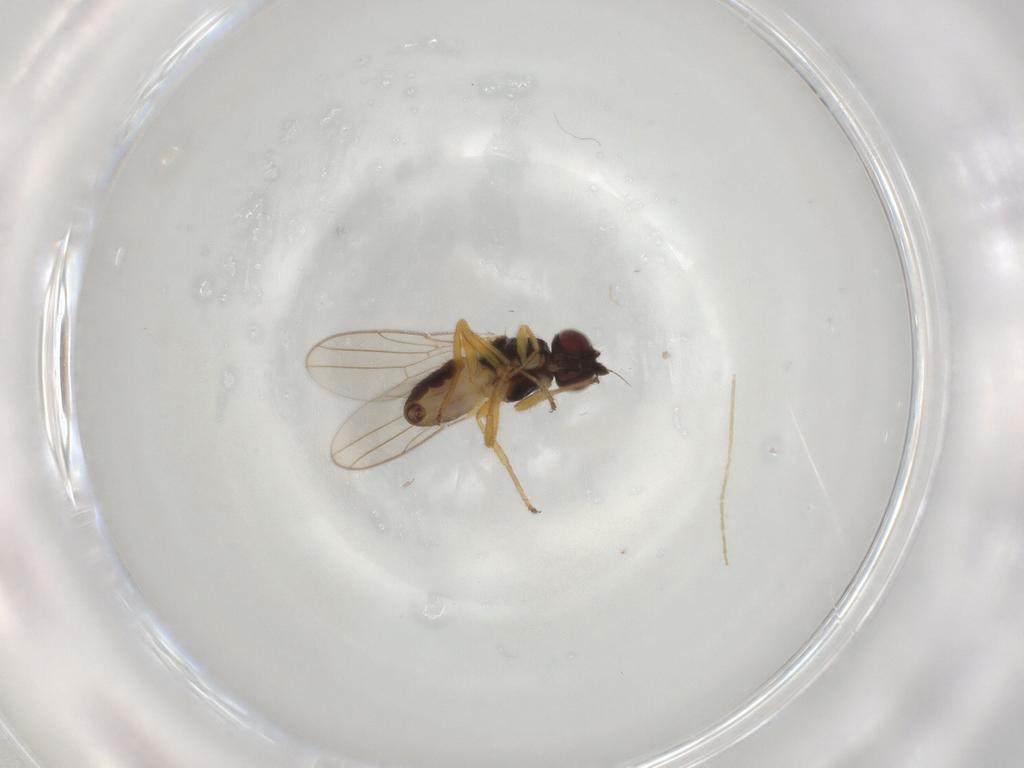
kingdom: Animalia
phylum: Arthropoda
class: Insecta
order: Diptera
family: Chloropidae
